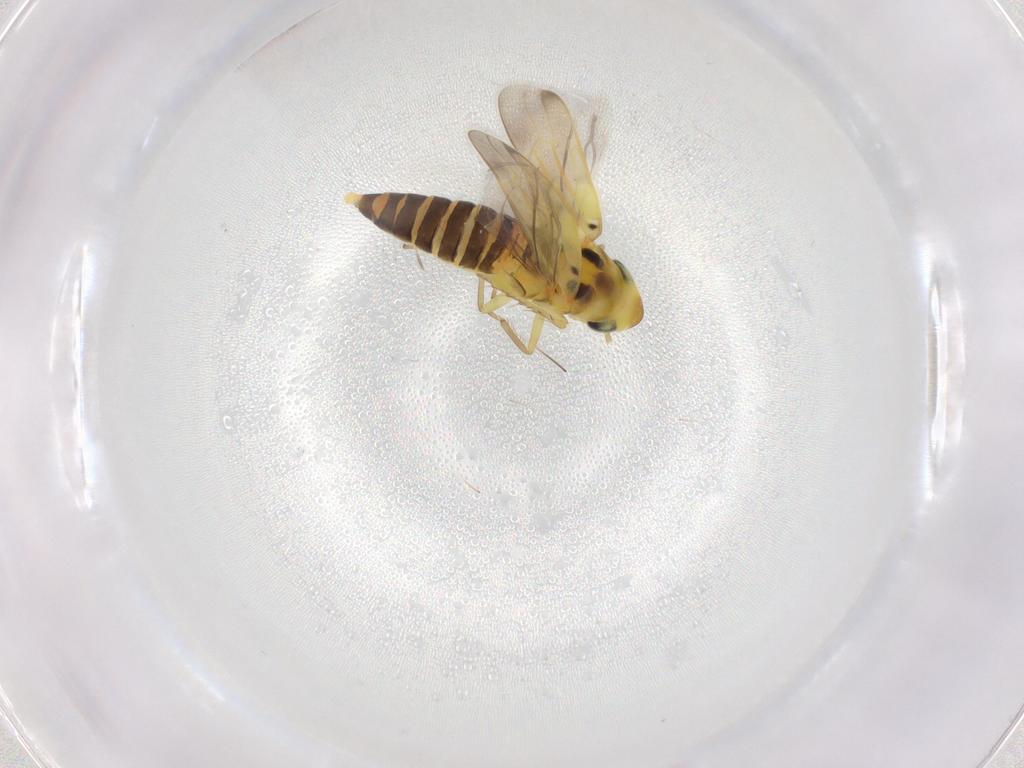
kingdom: Animalia
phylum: Arthropoda
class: Insecta
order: Hemiptera
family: Cicadellidae
